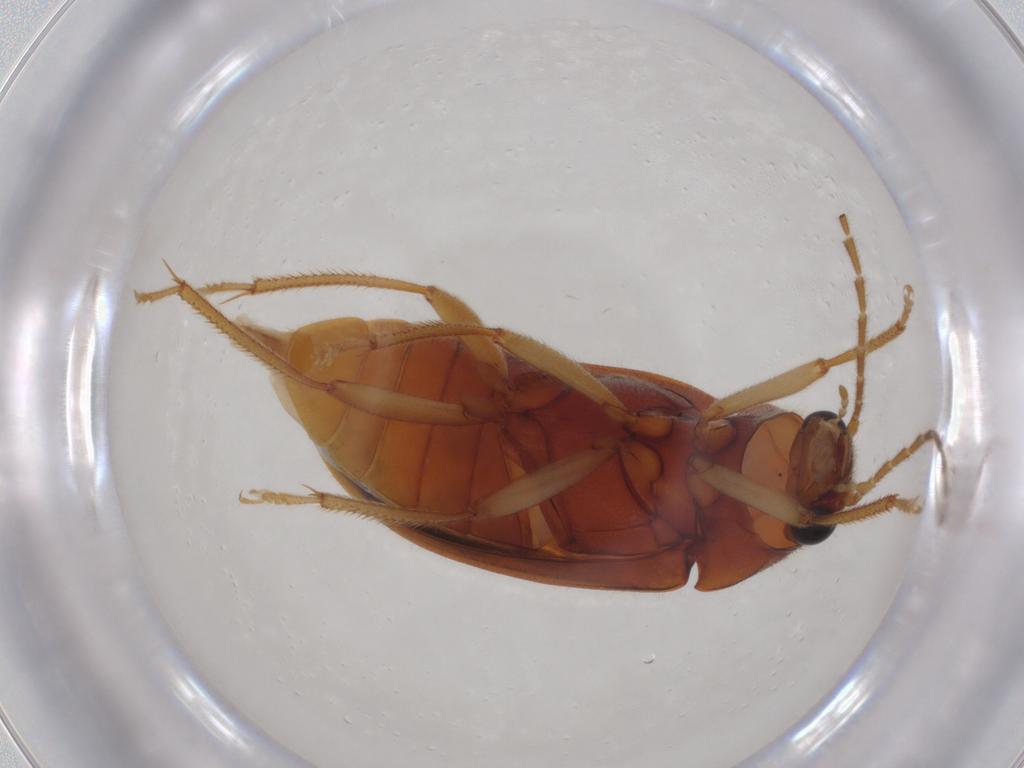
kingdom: Animalia
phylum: Arthropoda
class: Insecta
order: Coleoptera
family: Ptilodactylidae
